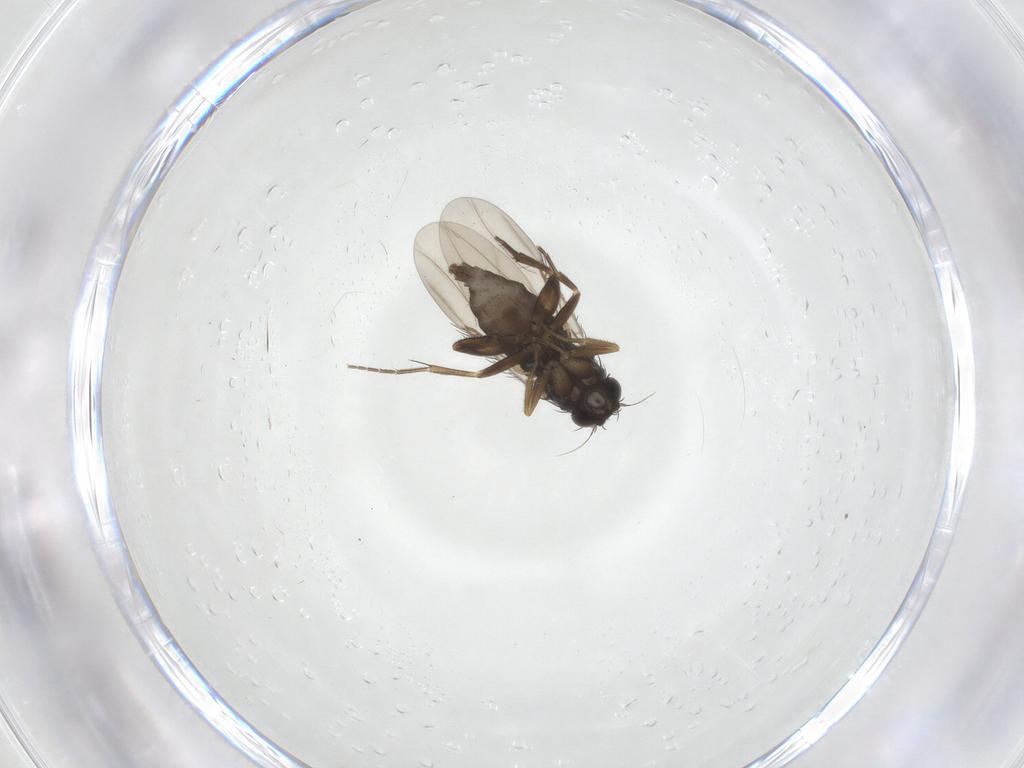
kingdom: Animalia
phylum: Arthropoda
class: Insecta
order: Diptera
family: Phoridae
